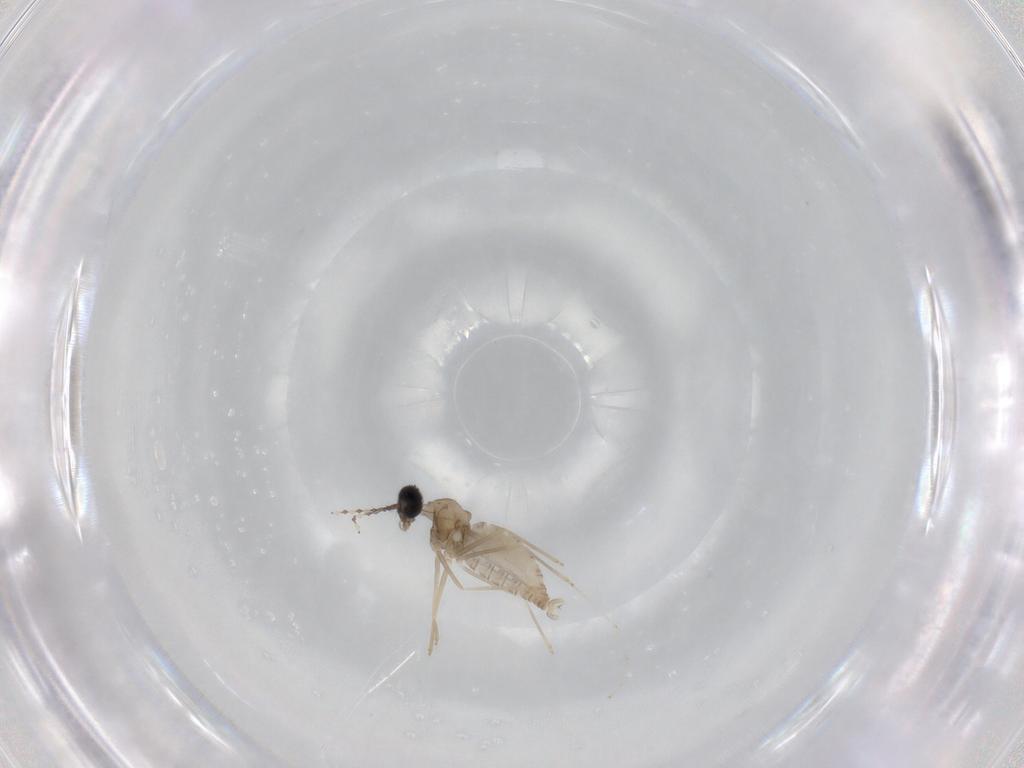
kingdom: Animalia
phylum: Arthropoda
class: Insecta
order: Diptera
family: Cecidomyiidae
